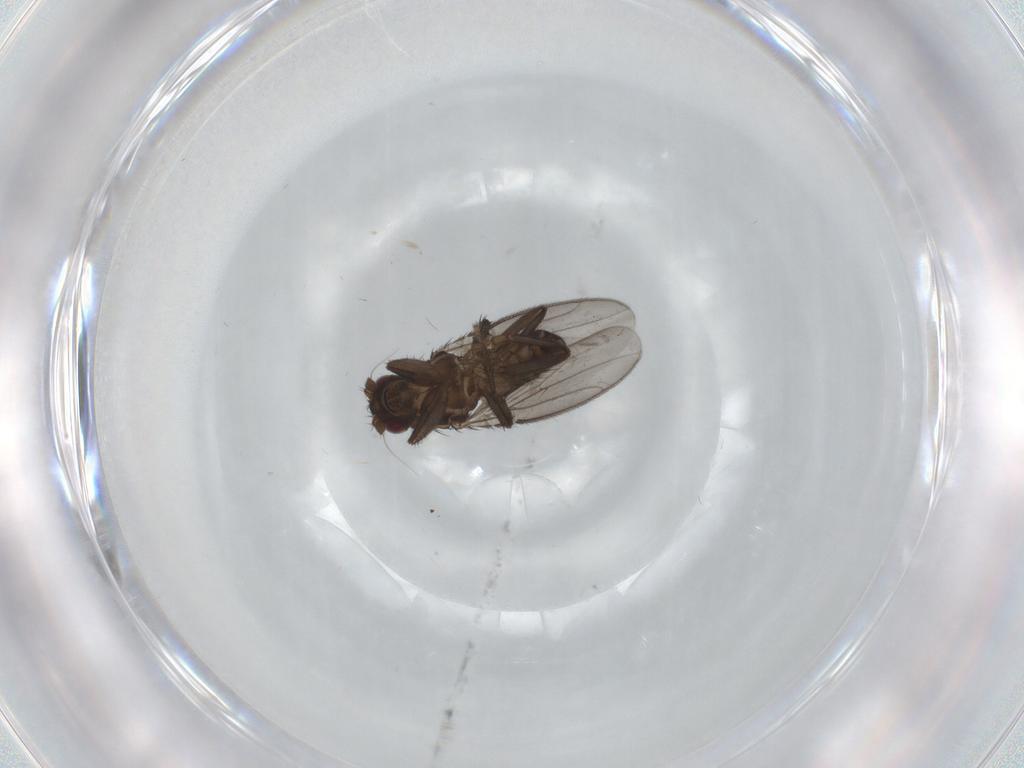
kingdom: Animalia
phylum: Arthropoda
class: Insecta
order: Diptera
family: Sphaeroceridae
